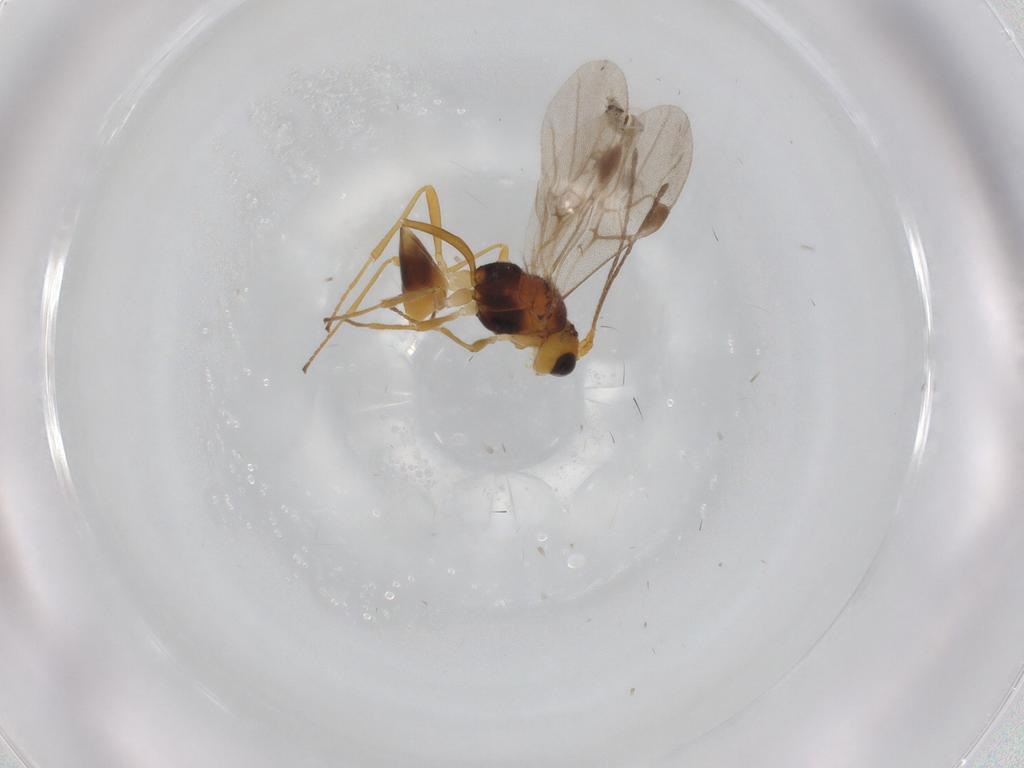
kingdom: Animalia
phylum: Arthropoda
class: Insecta
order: Hymenoptera
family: Braconidae
